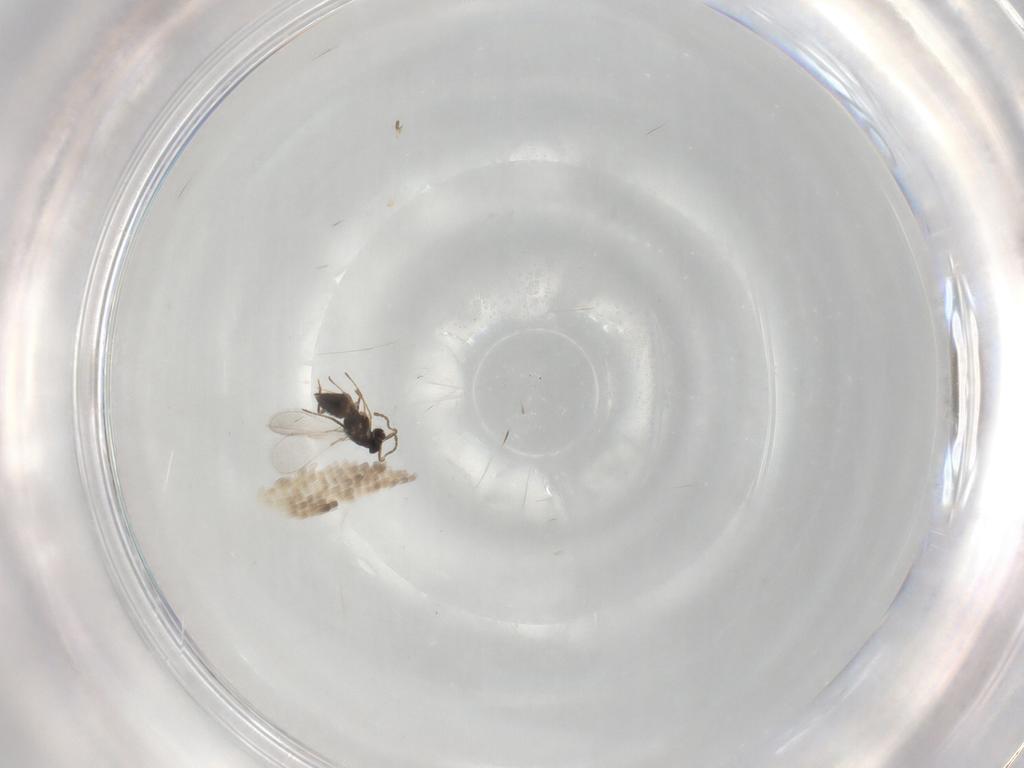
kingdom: Animalia
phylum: Arthropoda
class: Insecta
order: Hymenoptera
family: Mymaridae
